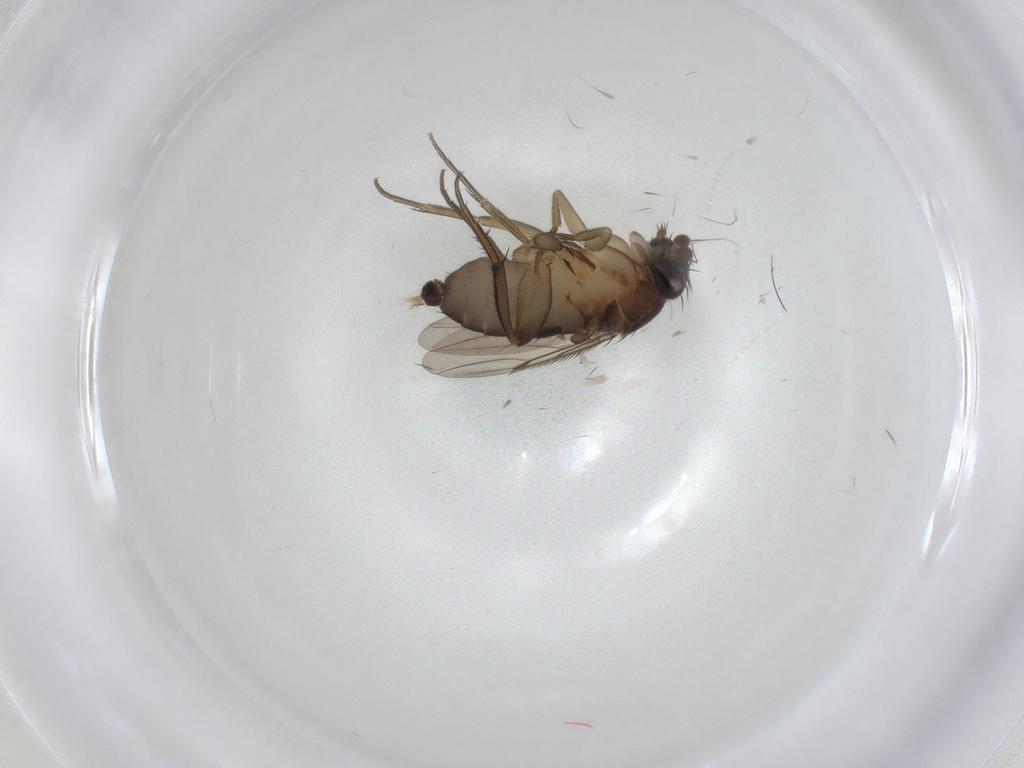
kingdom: Animalia
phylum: Arthropoda
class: Insecta
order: Diptera
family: Phoridae
